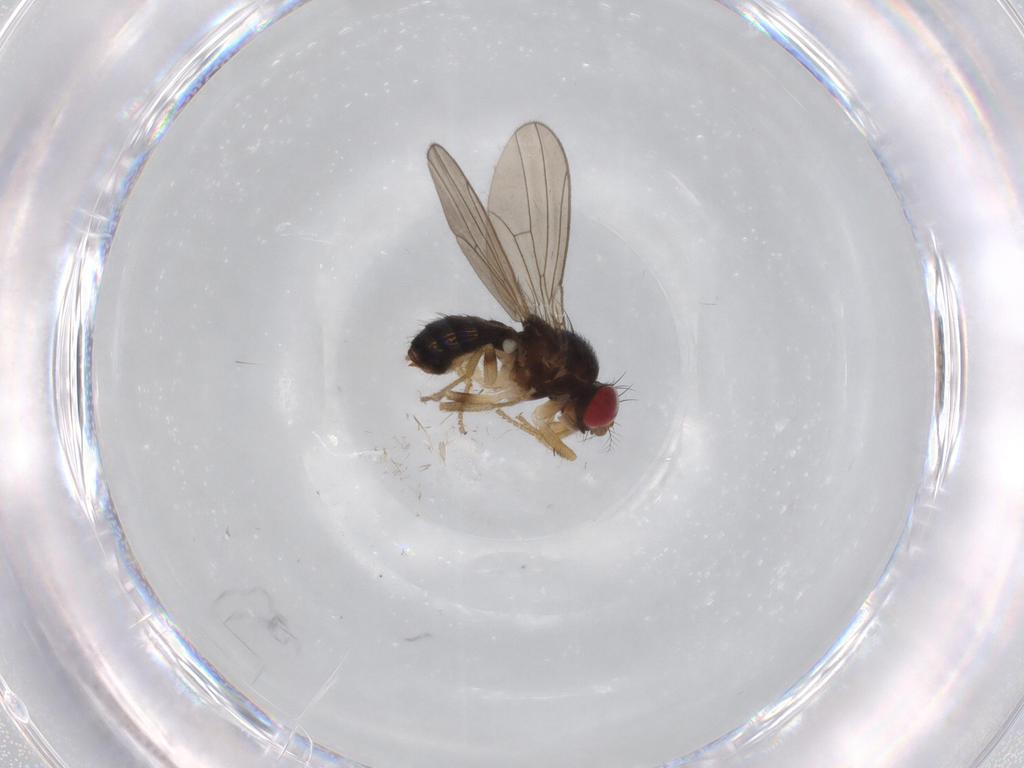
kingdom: Animalia
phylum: Arthropoda
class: Insecta
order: Diptera
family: Drosophilidae
